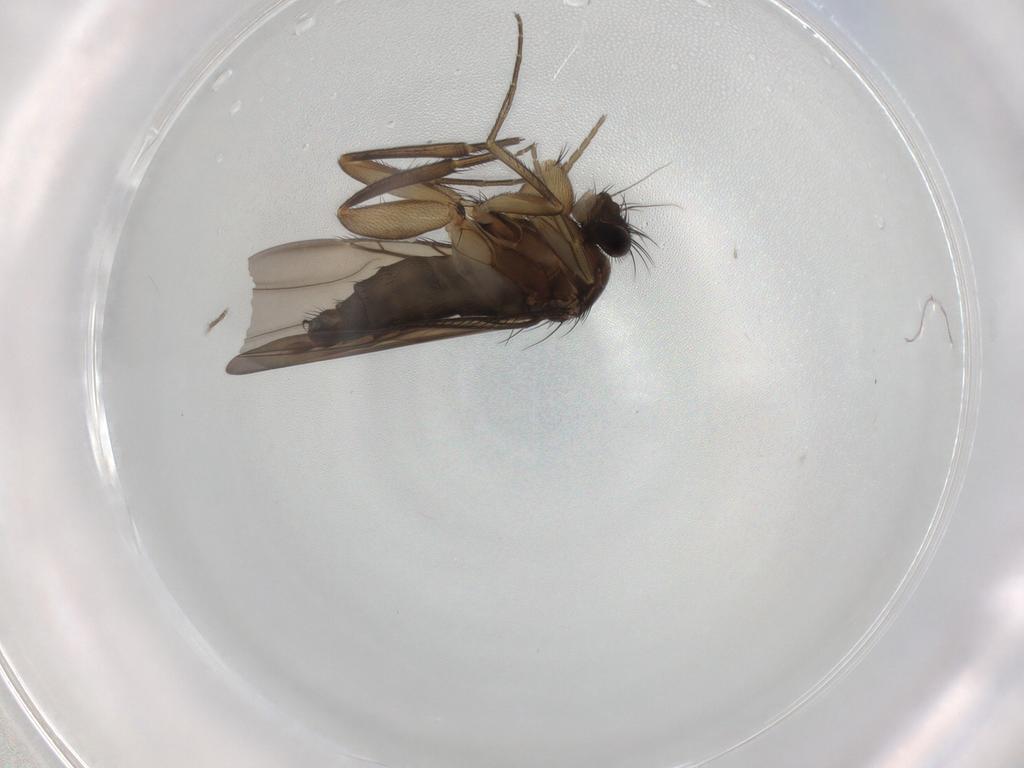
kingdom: Animalia
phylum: Arthropoda
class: Insecta
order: Diptera
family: Phoridae
